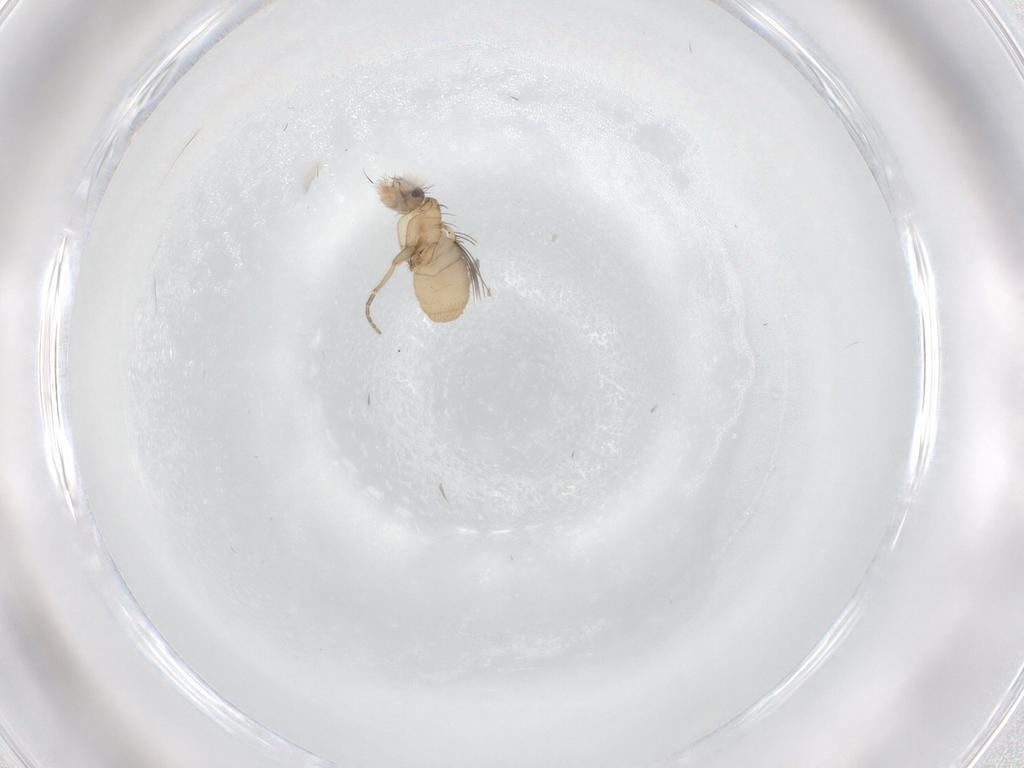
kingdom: Animalia
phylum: Arthropoda
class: Insecta
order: Diptera
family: Phoridae
